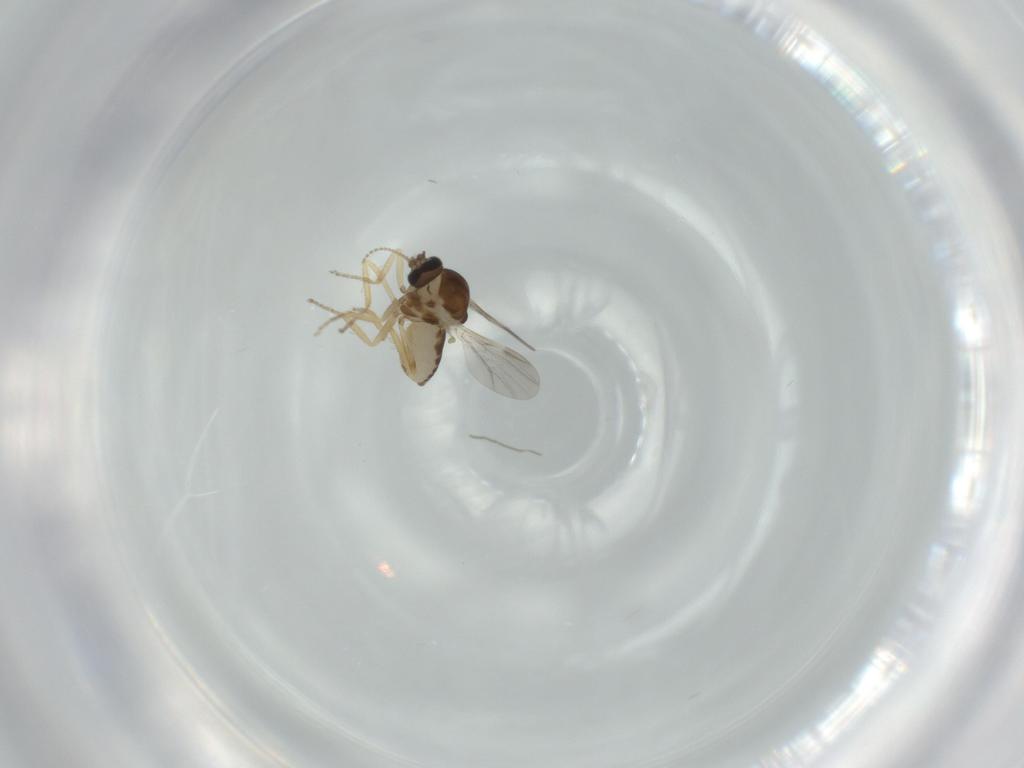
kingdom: Animalia
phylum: Arthropoda
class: Insecta
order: Diptera
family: Ceratopogonidae
